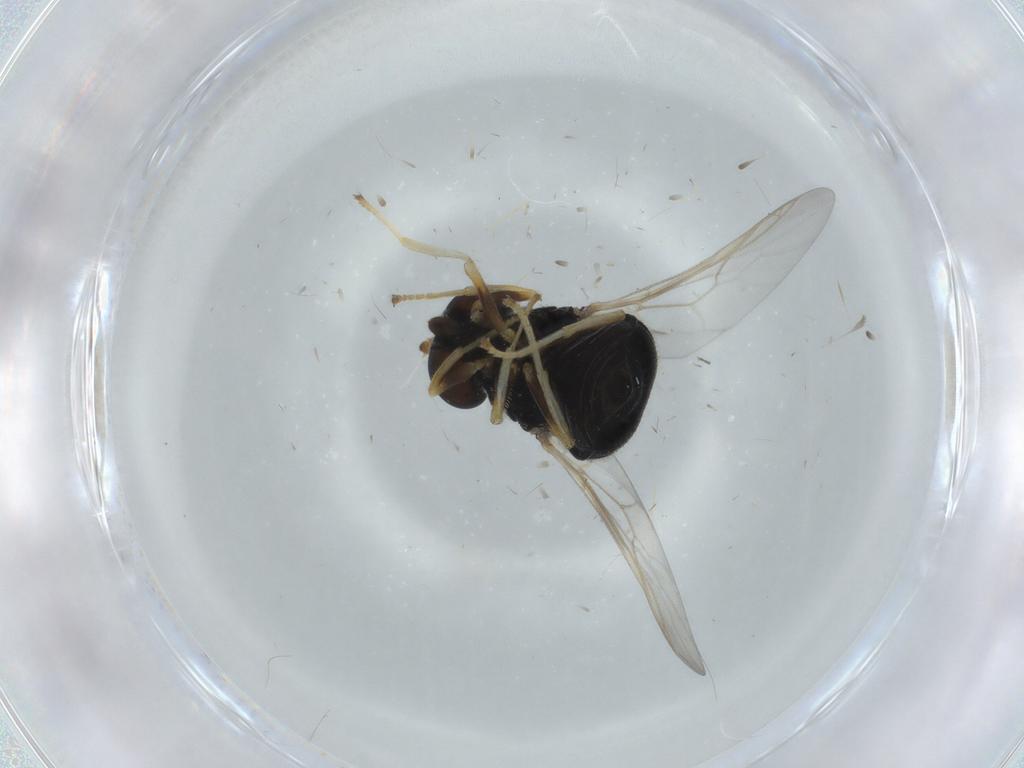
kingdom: Animalia
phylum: Arthropoda
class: Insecta
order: Diptera
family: Stratiomyidae
